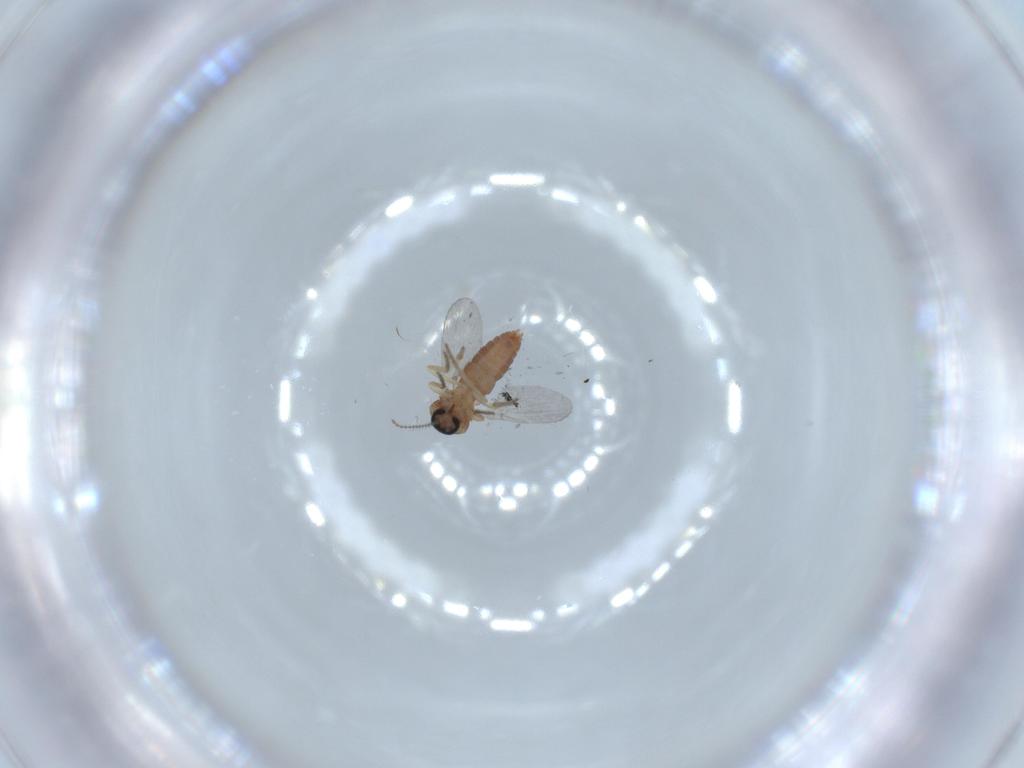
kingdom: Animalia
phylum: Arthropoda
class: Insecta
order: Diptera
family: Ceratopogonidae
